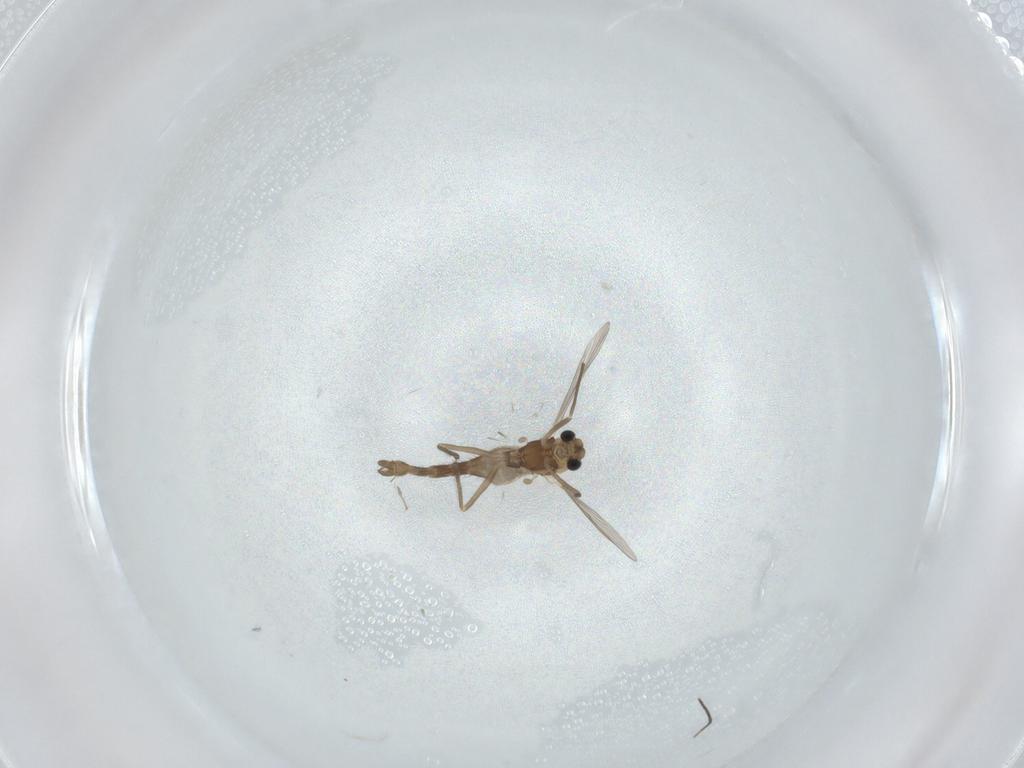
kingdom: Animalia
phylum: Arthropoda
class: Insecta
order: Diptera
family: Chironomidae
